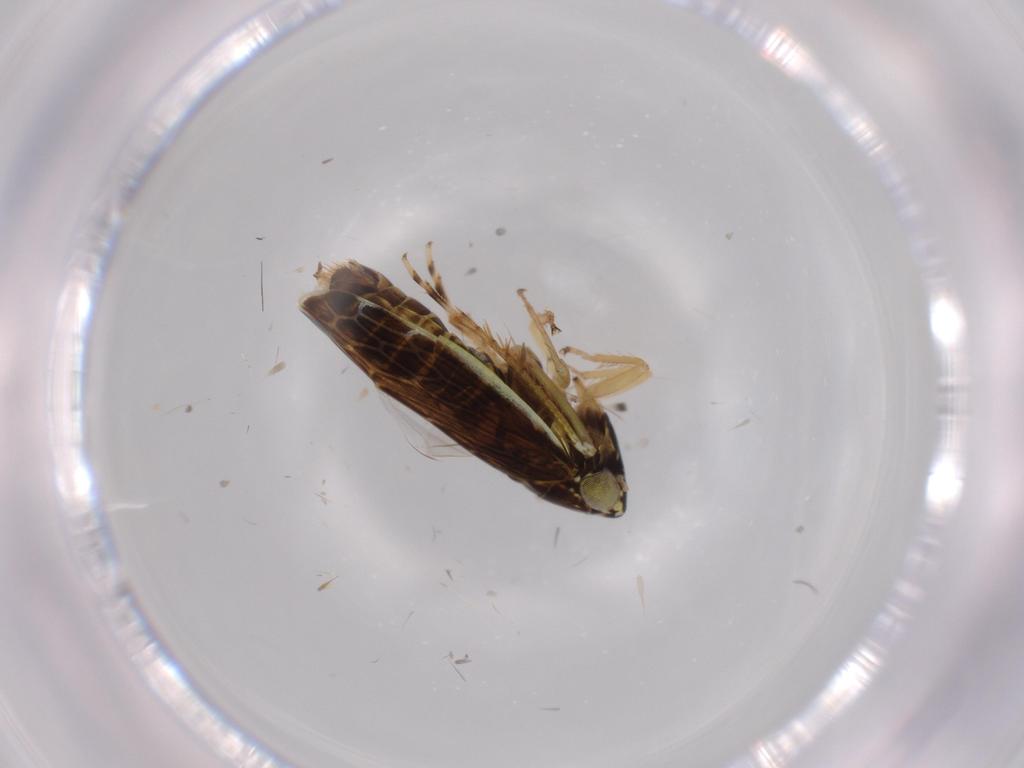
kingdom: Animalia
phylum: Arthropoda
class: Insecta
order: Hemiptera
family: Cicadellidae
